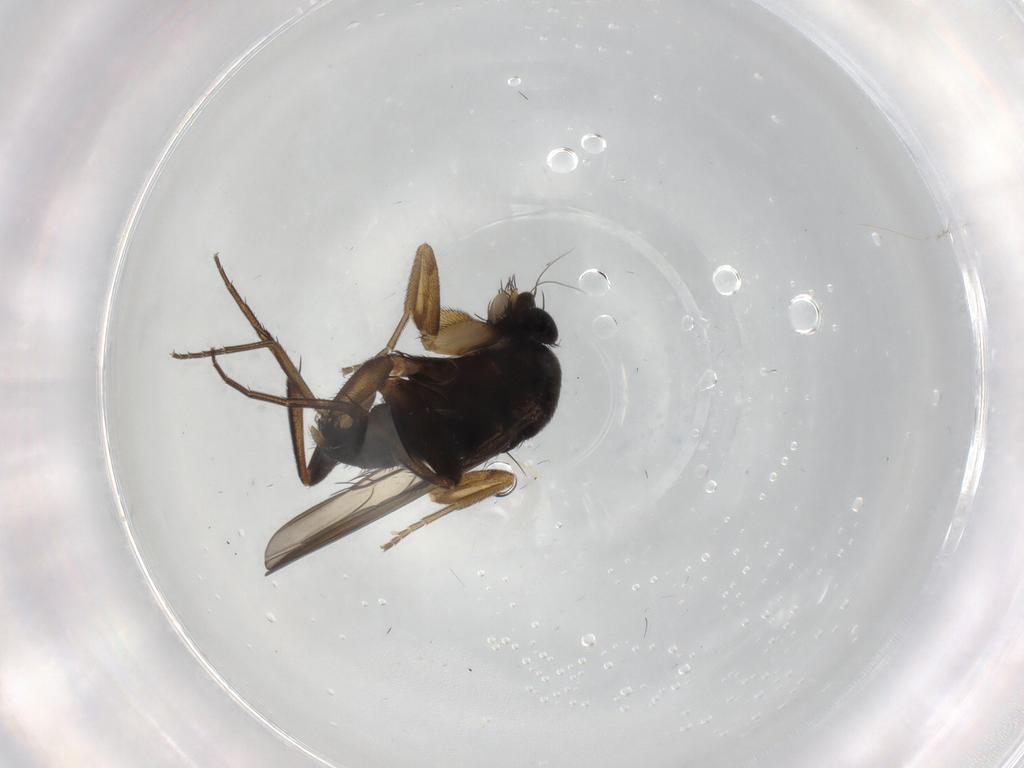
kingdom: Animalia
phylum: Arthropoda
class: Insecta
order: Diptera
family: Phoridae
